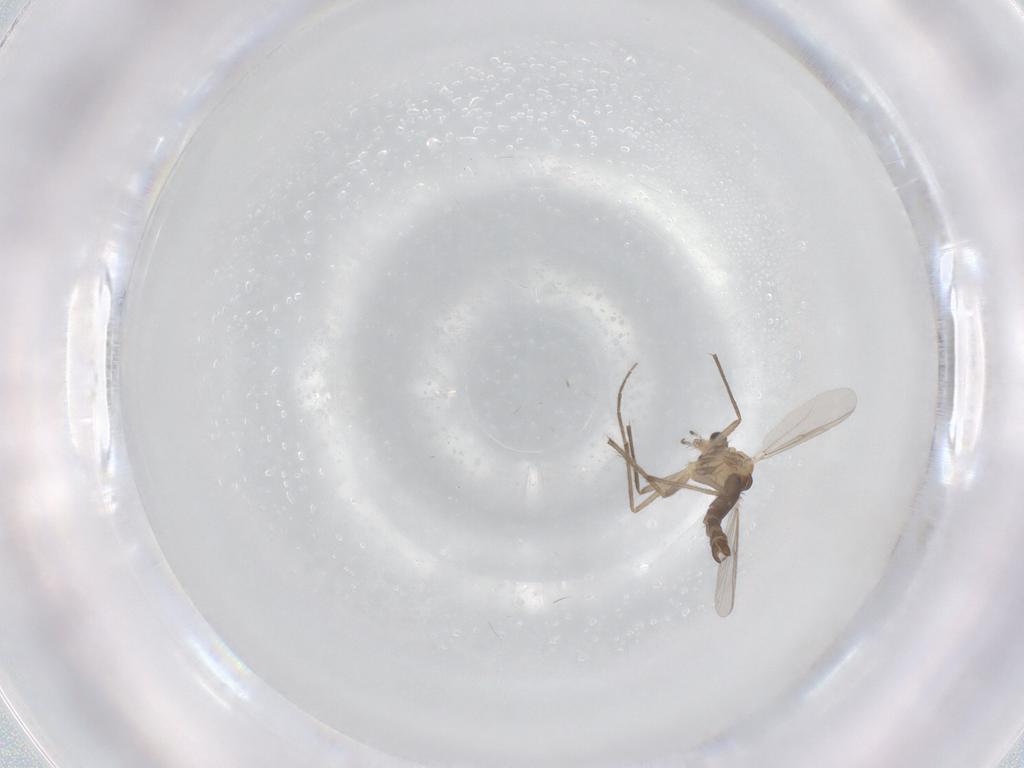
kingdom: Animalia
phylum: Arthropoda
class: Insecta
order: Diptera
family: Chironomidae
